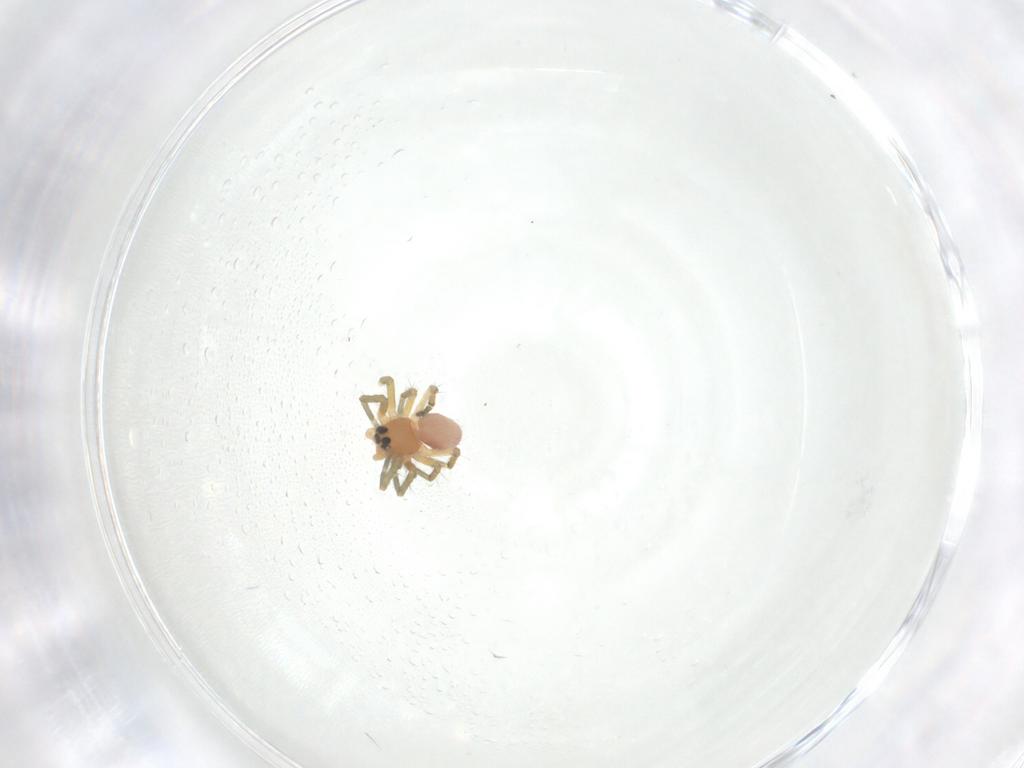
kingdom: Animalia
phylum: Arthropoda
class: Arachnida
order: Araneae
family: Linyphiidae
